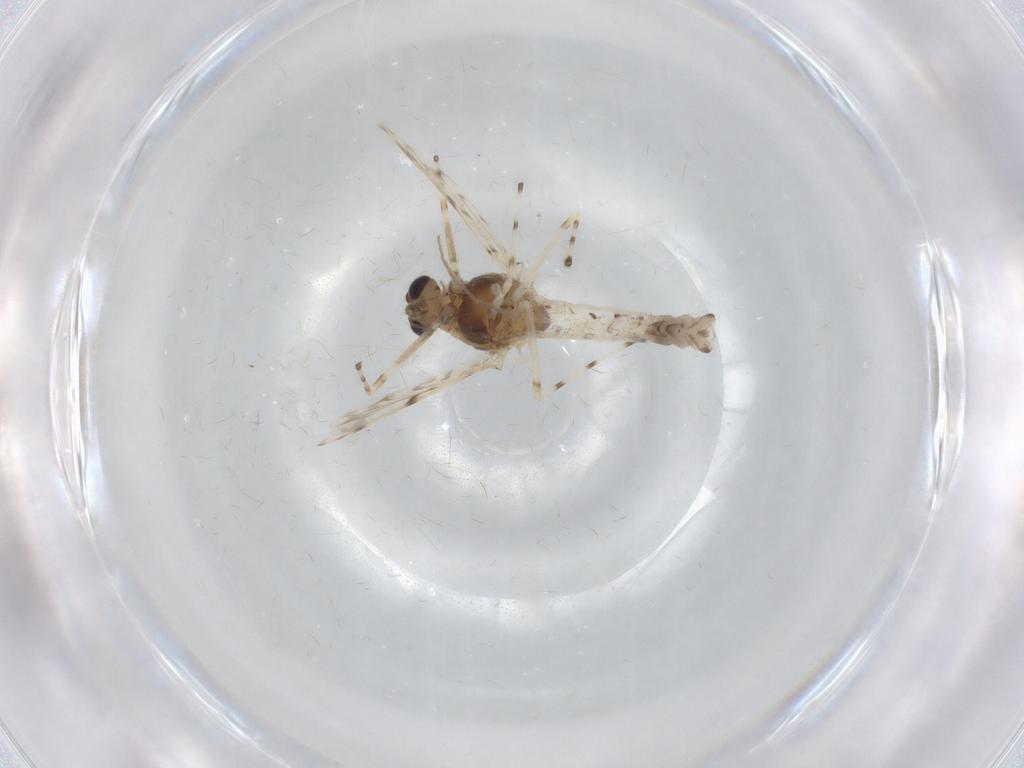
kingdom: Animalia
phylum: Arthropoda
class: Insecta
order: Diptera
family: Chironomidae
